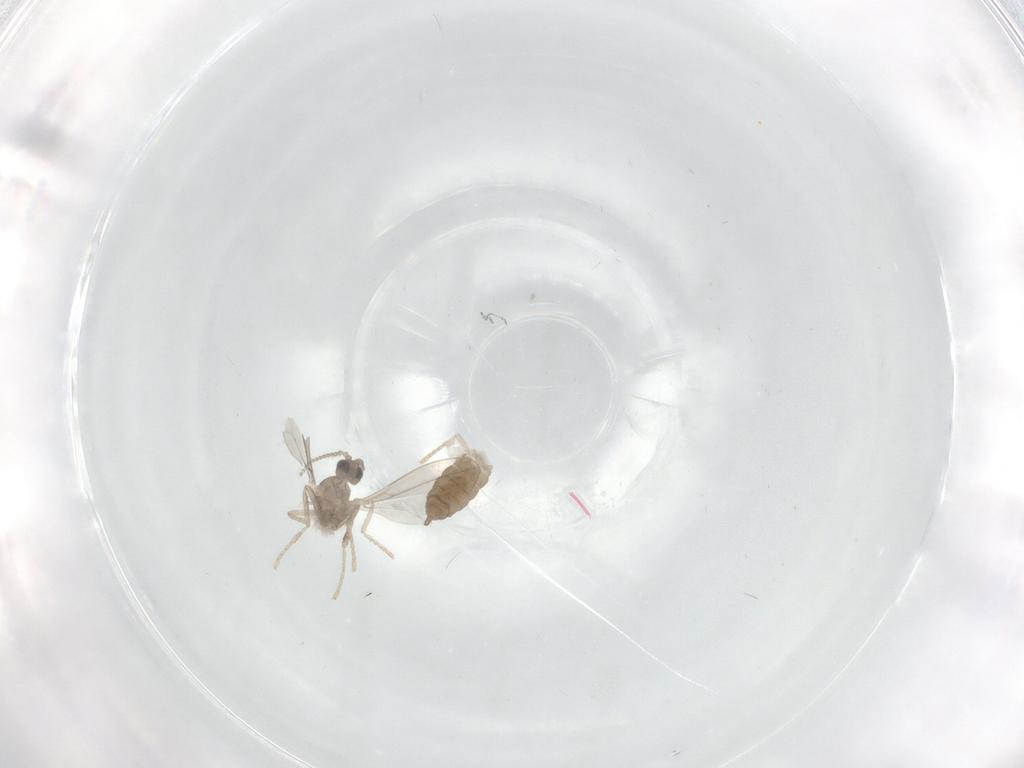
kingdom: Animalia
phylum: Arthropoda
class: Insecta
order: Diptera
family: Cecidomyiidae
